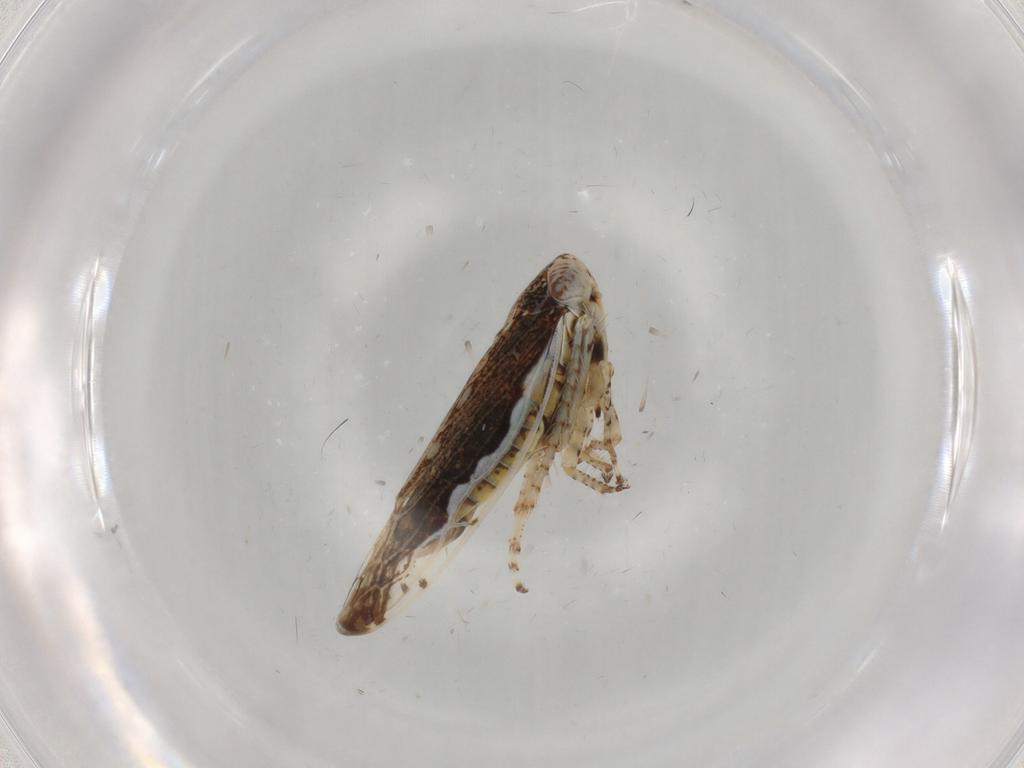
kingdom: Animalia
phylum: Arthropoda
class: Insecta
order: Hemiptera
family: Cicadellidae
